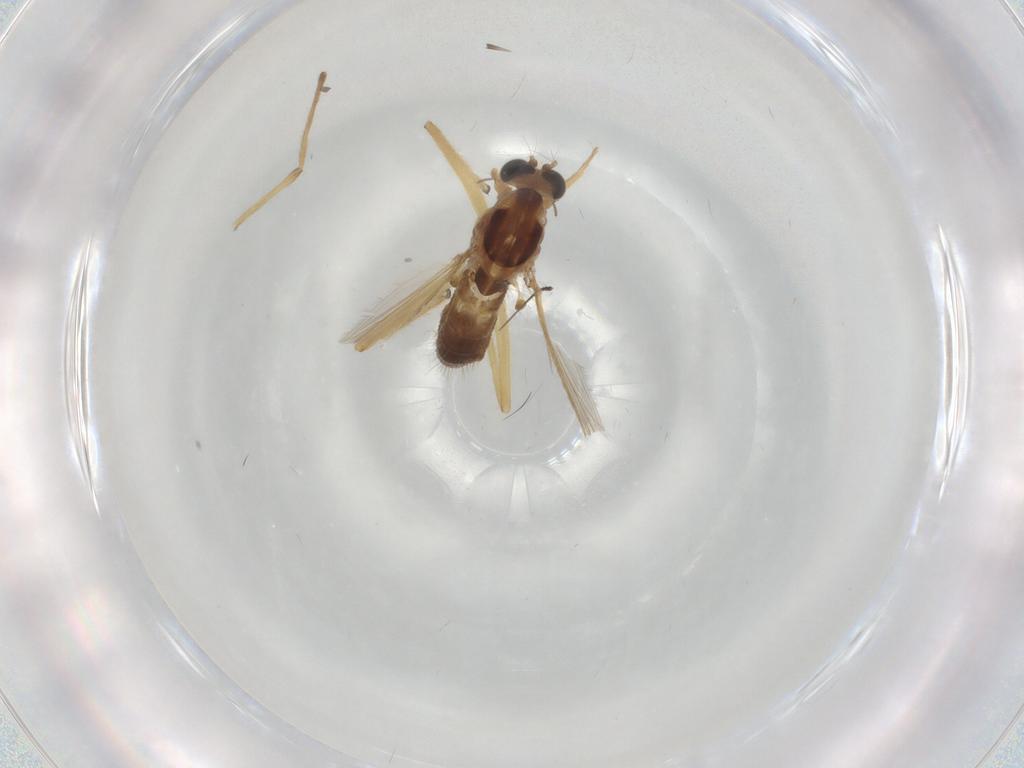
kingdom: Animalia
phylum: Arthropoda
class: Insecta
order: Diptera
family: Chironomidae
